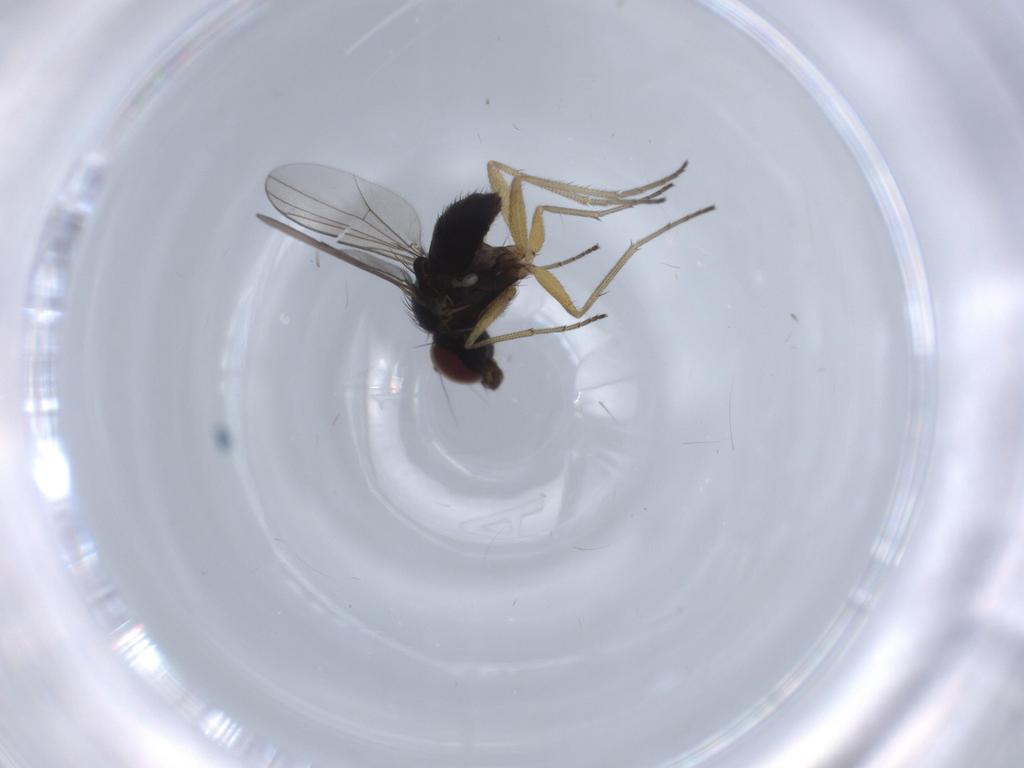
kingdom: Animalia
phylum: Arthropoda
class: Insecta
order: Diptera
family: Dolichopodidae
